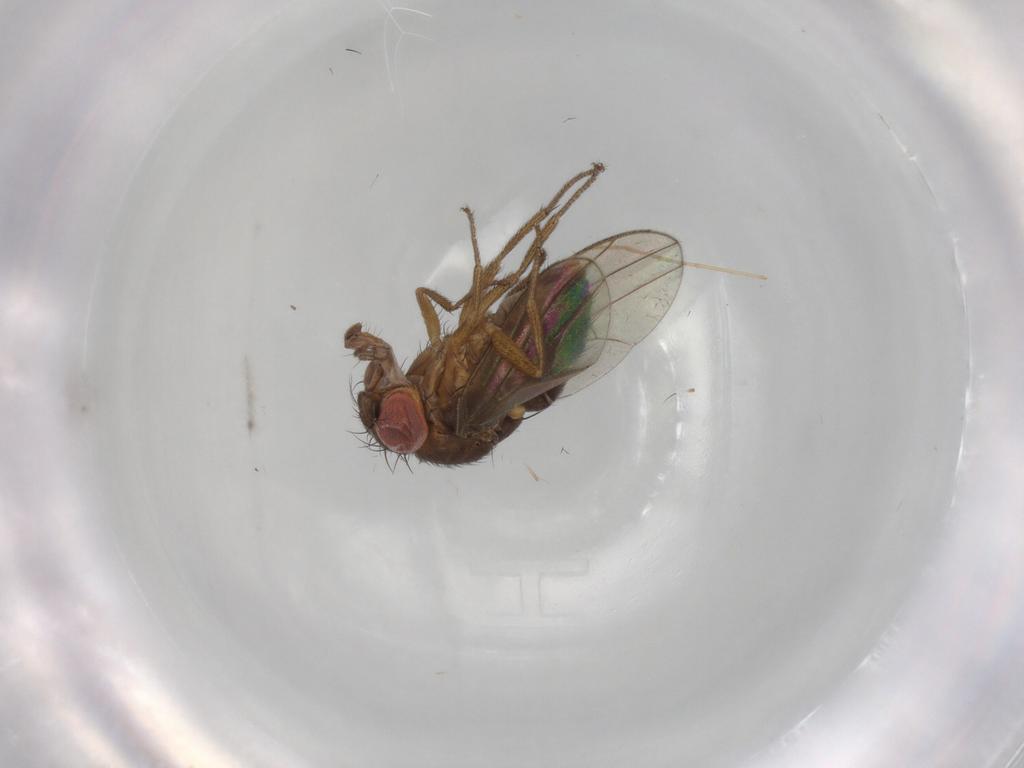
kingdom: Animalia
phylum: Arthropoda
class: Insecta
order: Diptera
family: Drosophilidae
